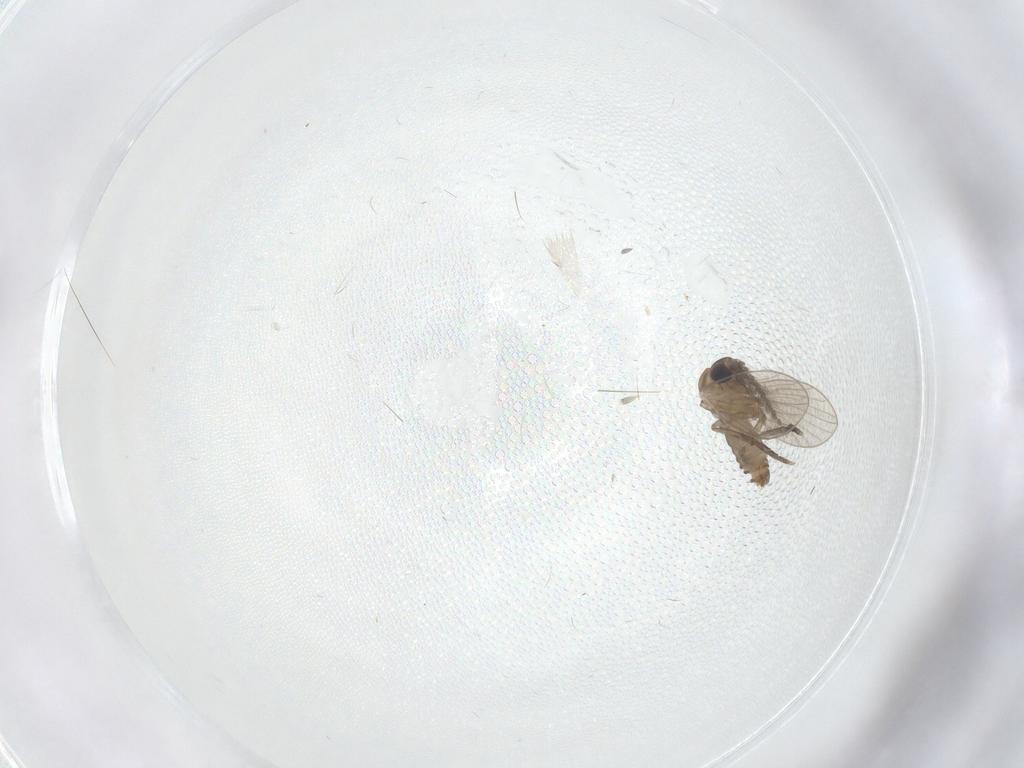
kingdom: Animalia
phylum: Arthropoda
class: Insecta
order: Diptera
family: Psychodidae
